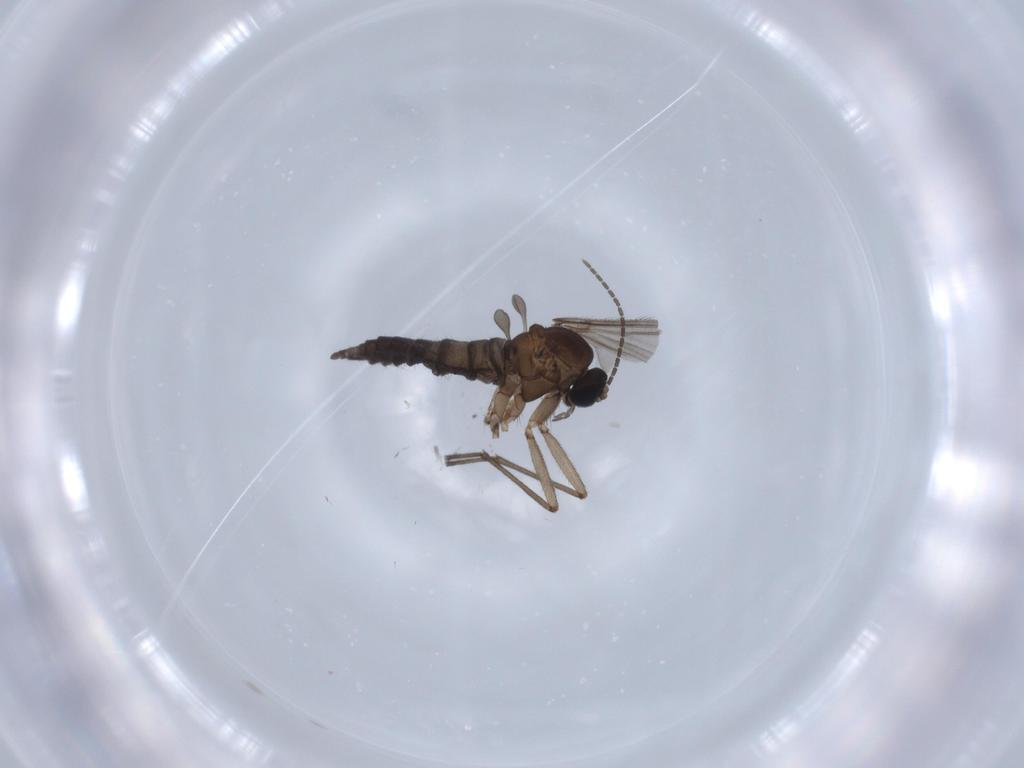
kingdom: Animalia
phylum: Arthropoda
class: Insecta
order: Diptera
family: Sciaridae
